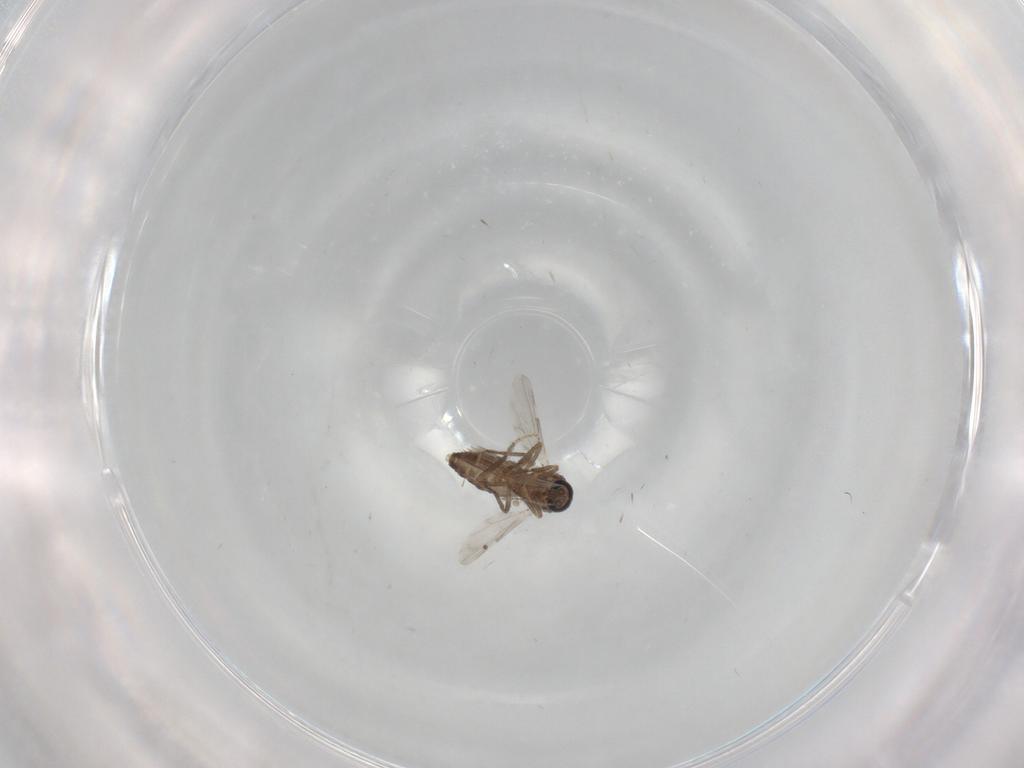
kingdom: Animalia
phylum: Arthropoda
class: Insecta
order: Diptera
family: Ceratopogonidae
